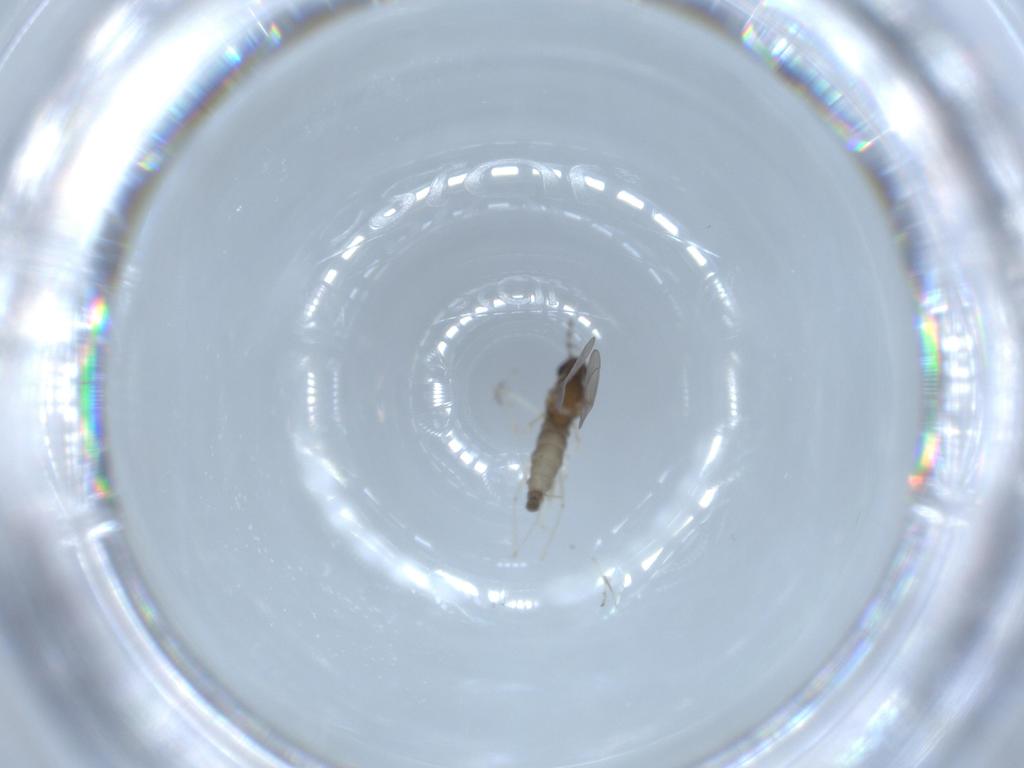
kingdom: Animalia
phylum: Arthropoda
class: Insecta
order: Diptera
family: Cecidomyiidae
